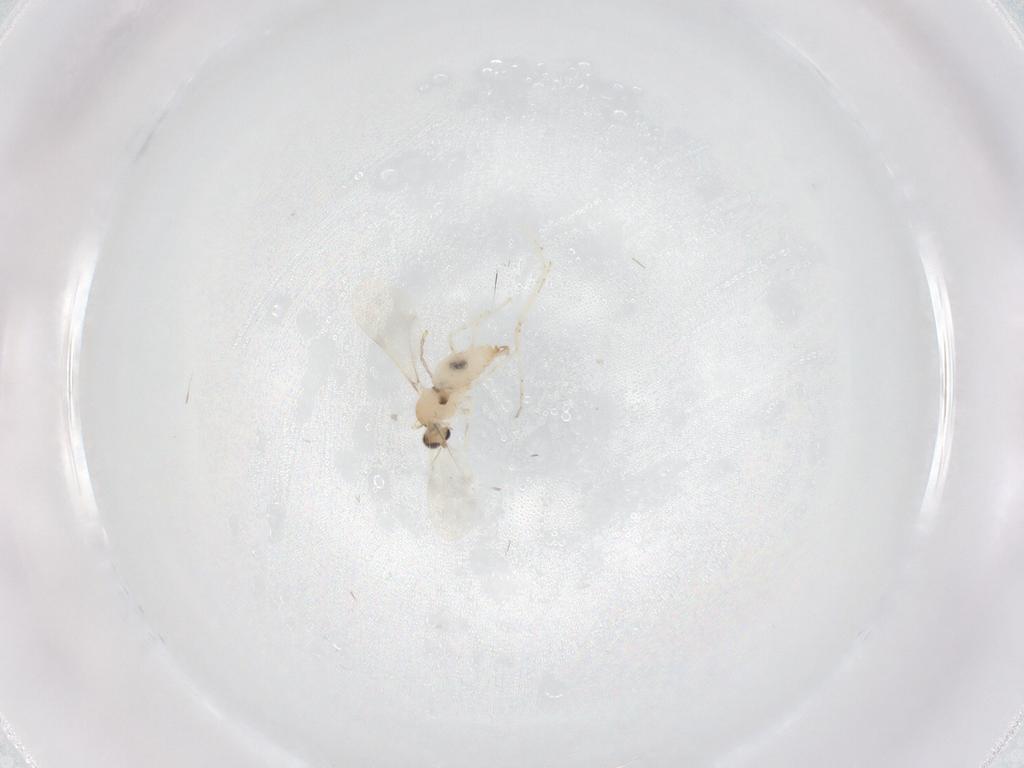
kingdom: Animalia
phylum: Arthropoda
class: Insecta
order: Diptera
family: Cecidomyiidae
